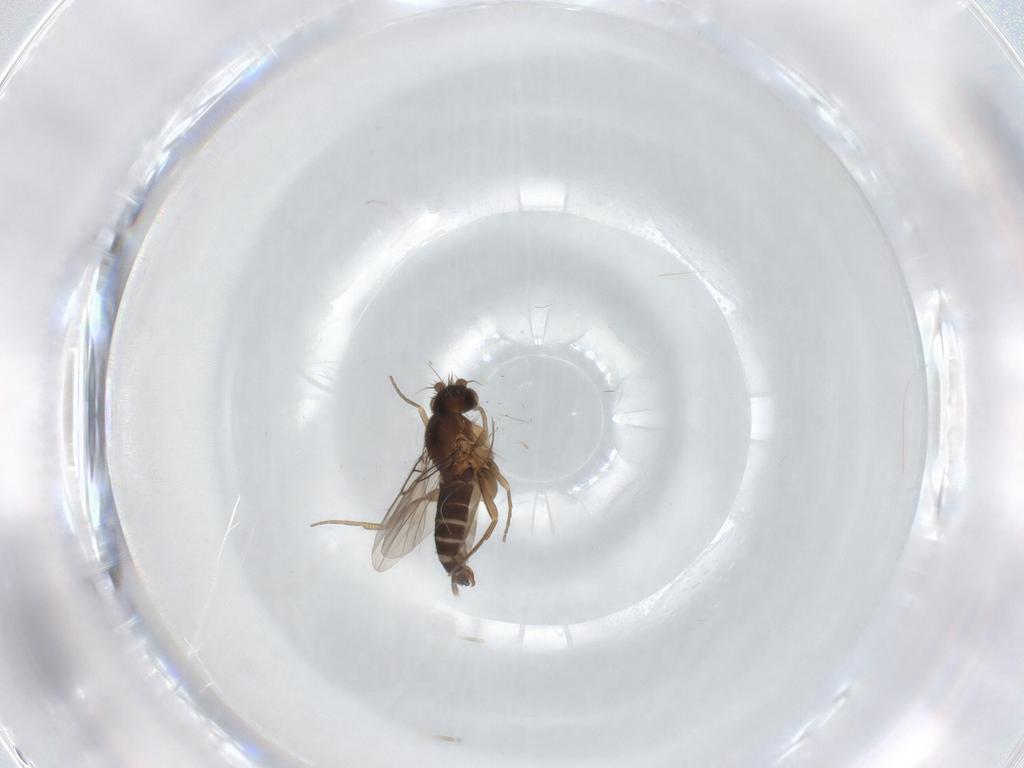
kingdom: Animalia
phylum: Arthropoda
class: Insecta
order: Diptera
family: Phoridae
